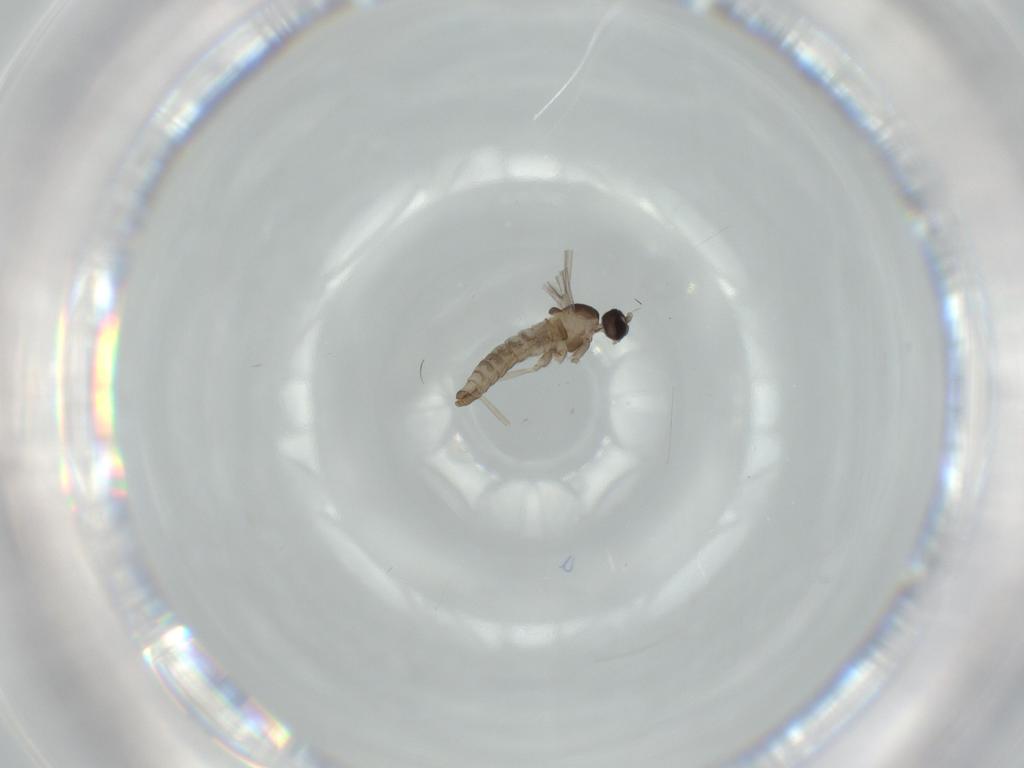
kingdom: Animalia
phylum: Arthropoda
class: Insecta
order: Diptera
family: Cecidomyiidae
